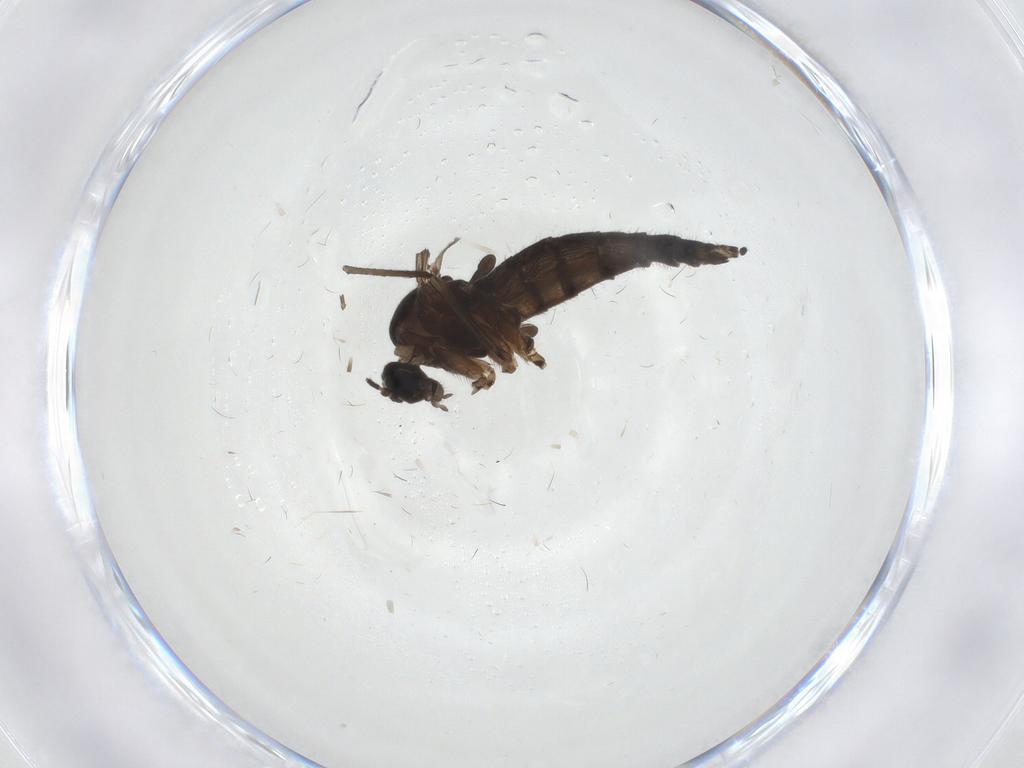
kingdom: Animalia
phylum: Arthropoda
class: Insecta
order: Diptera
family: Sciaridae
